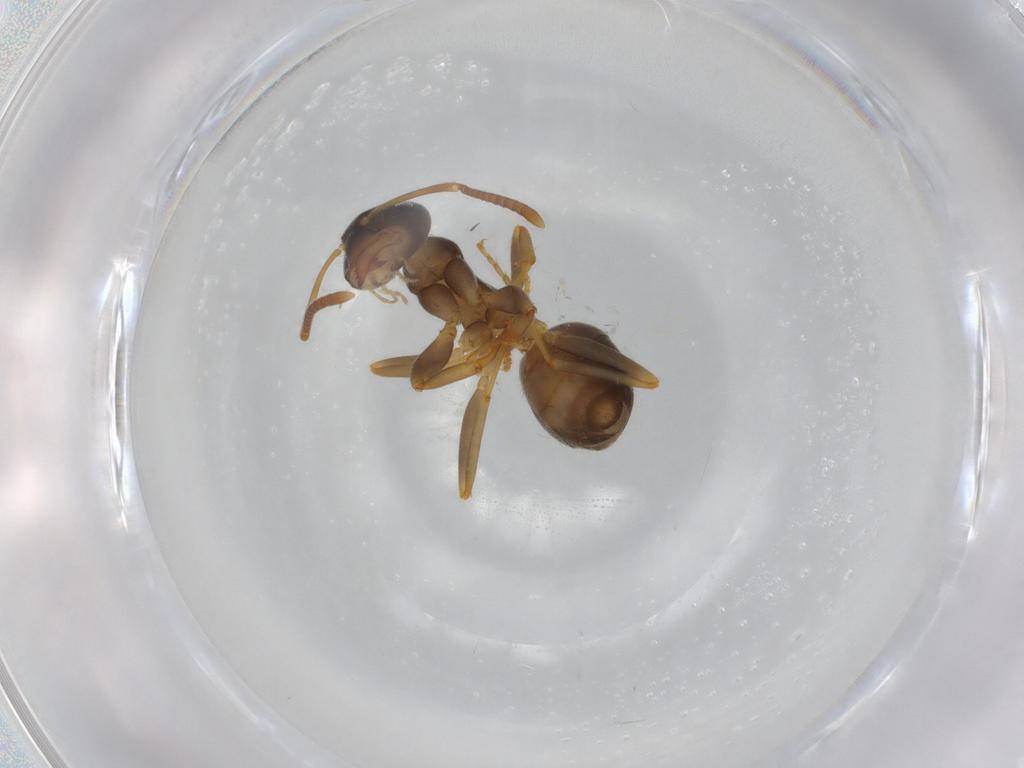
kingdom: Animalia
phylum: Arthropoda
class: Insecta
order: Hymenoptera
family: Formicidae
